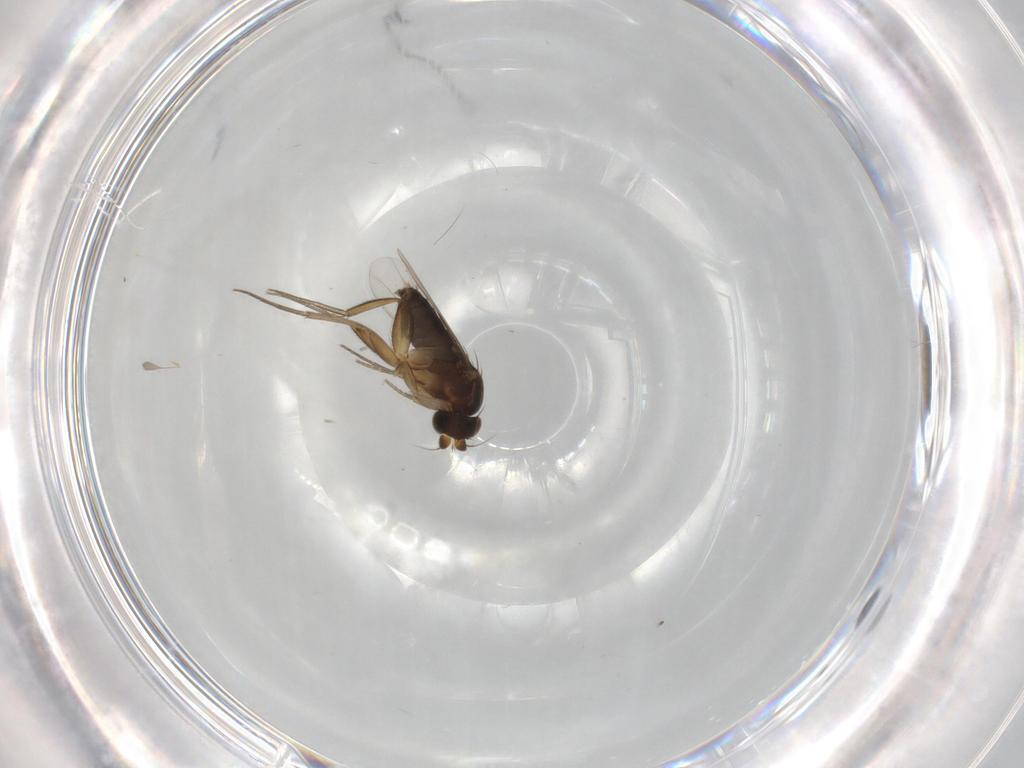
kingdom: Animalia
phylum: Arthropoda
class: Insecta
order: Diptera
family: Phoridae
